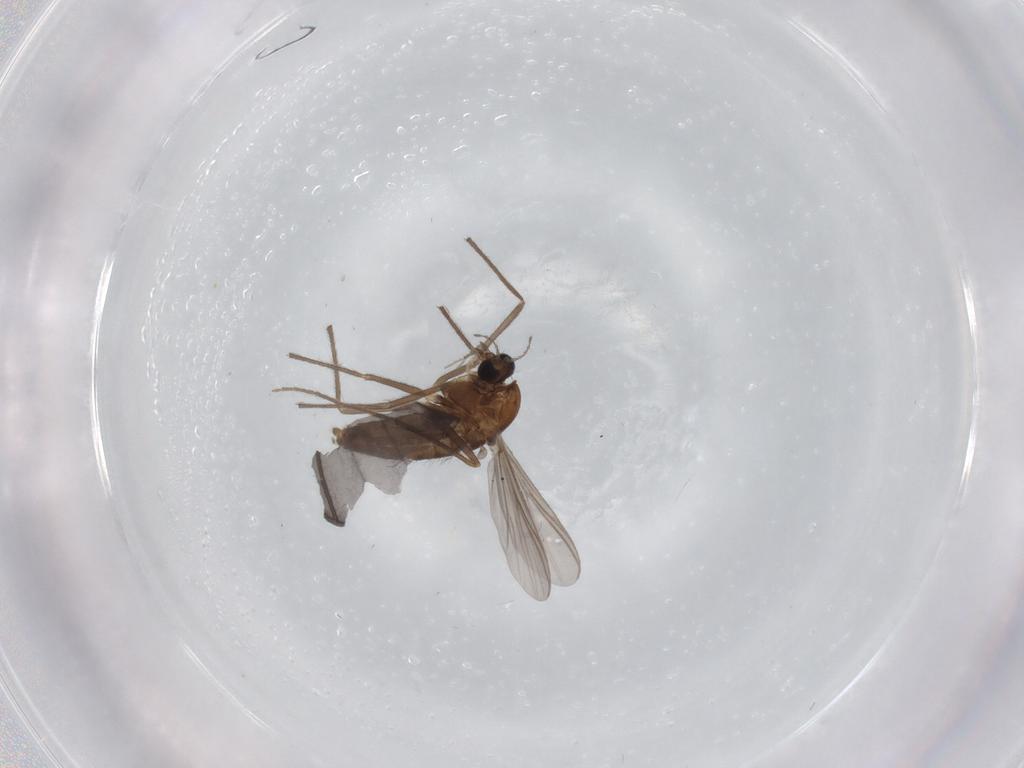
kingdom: Animalia
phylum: Arthropoda
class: Insecta
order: Diptera
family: Chironomidae
